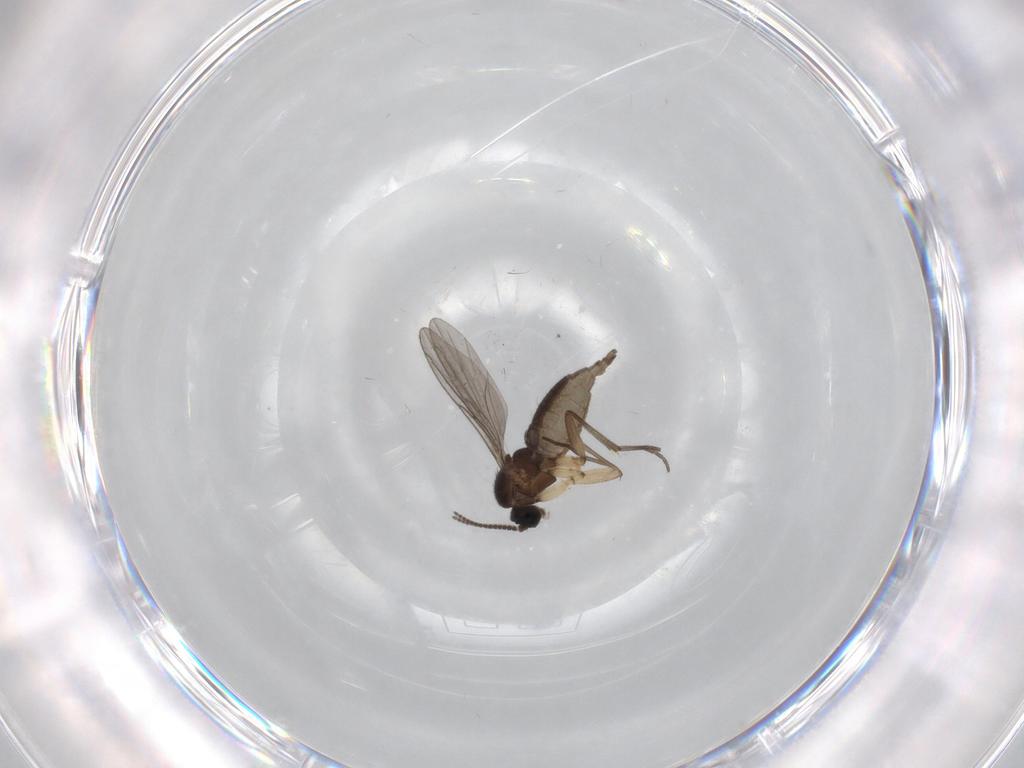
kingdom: Animalia
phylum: Arthropoda
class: Insecta
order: Diptera
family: Sciaridae
